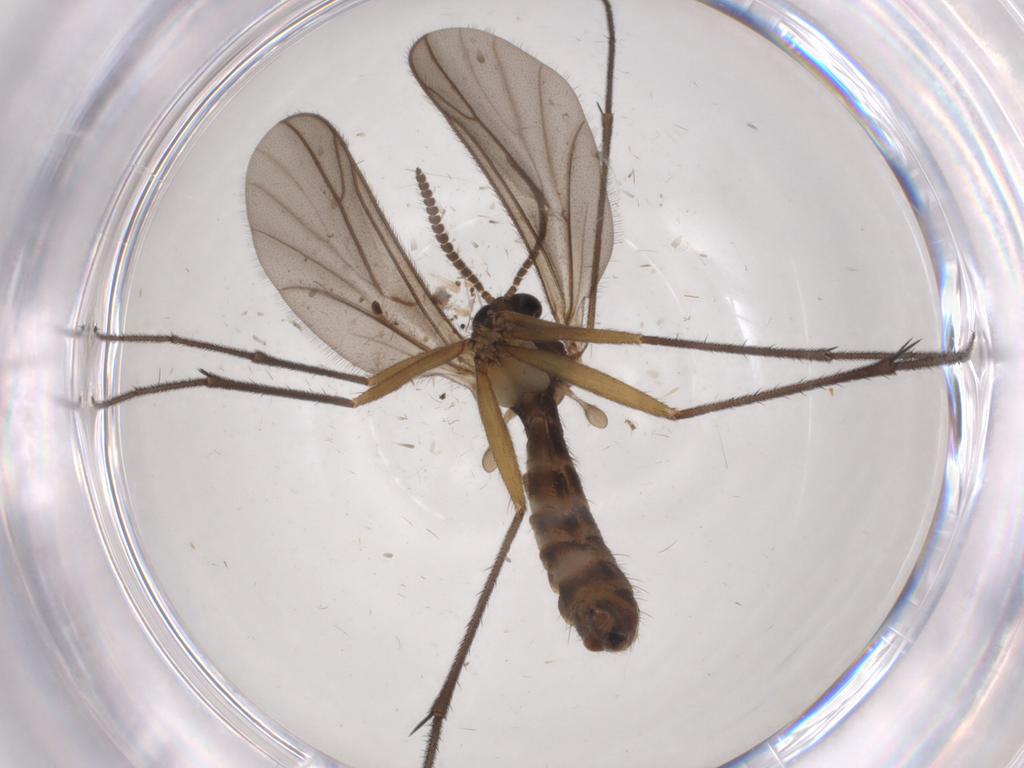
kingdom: Animalia
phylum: Arthropoda
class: Insecta
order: Diptera
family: Ditomyiidae
